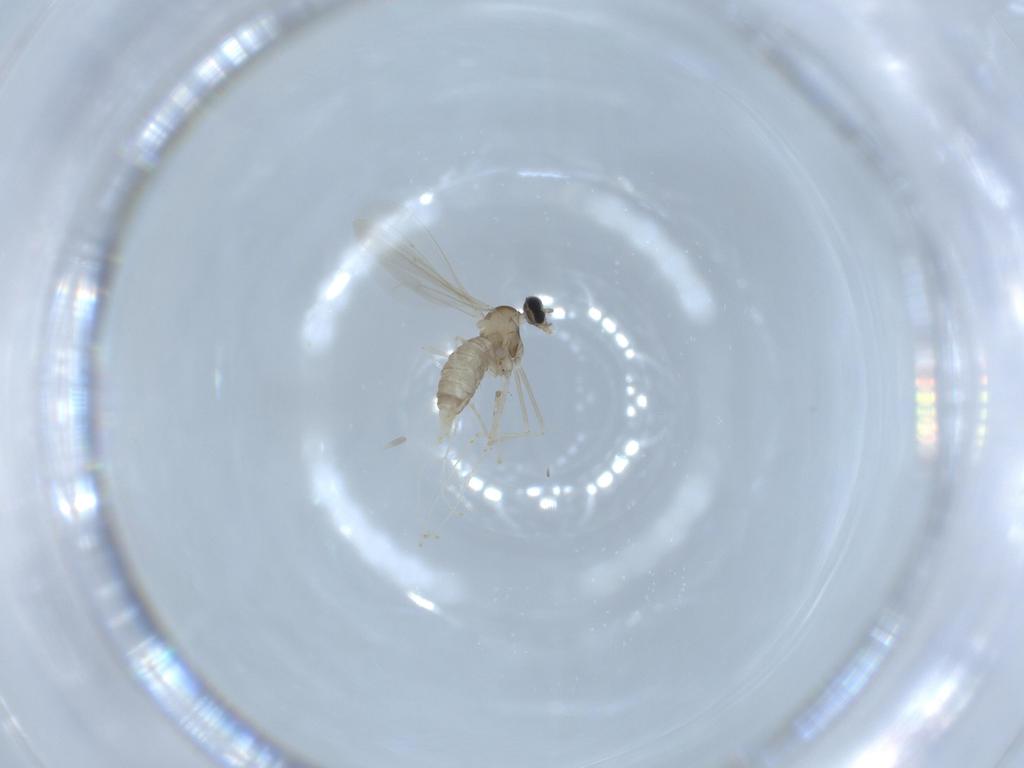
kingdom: Animalia
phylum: Arthropoda
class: Insecta
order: Diptera
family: Cecidomyiidae
